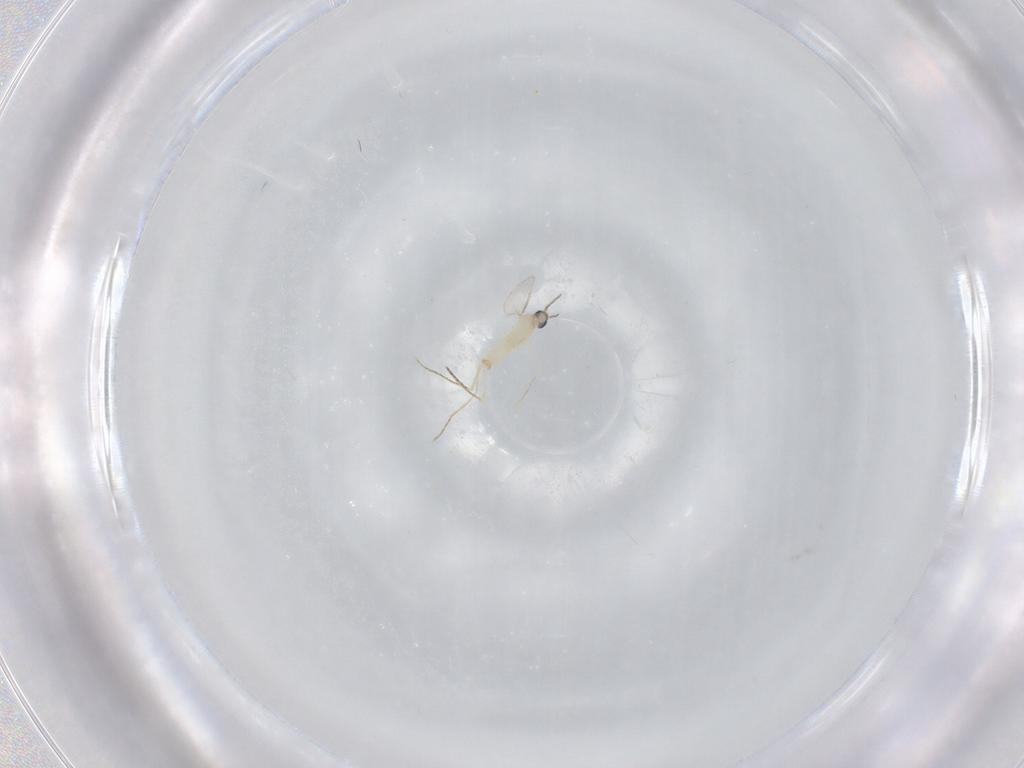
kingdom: Animalia
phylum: Arthropoda
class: Insecta
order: Diptera
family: Cecidomyiidae
